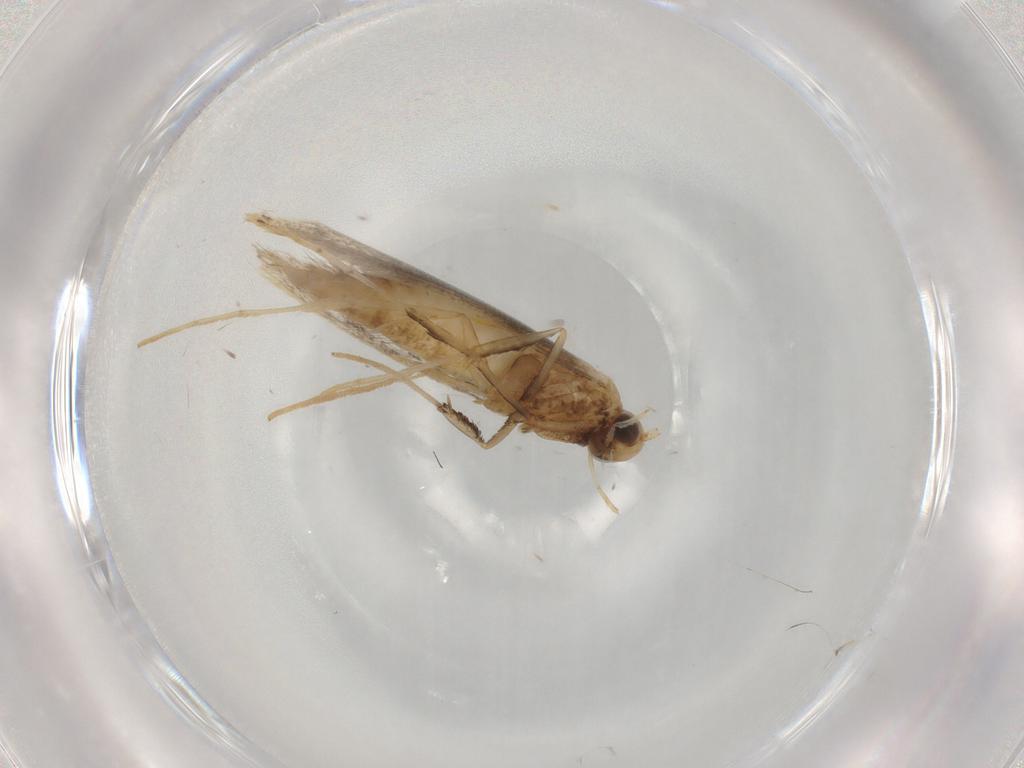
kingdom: Animalia
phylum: Arthropoda
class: Insecta
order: Lepidoptera
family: Gracillariidae
